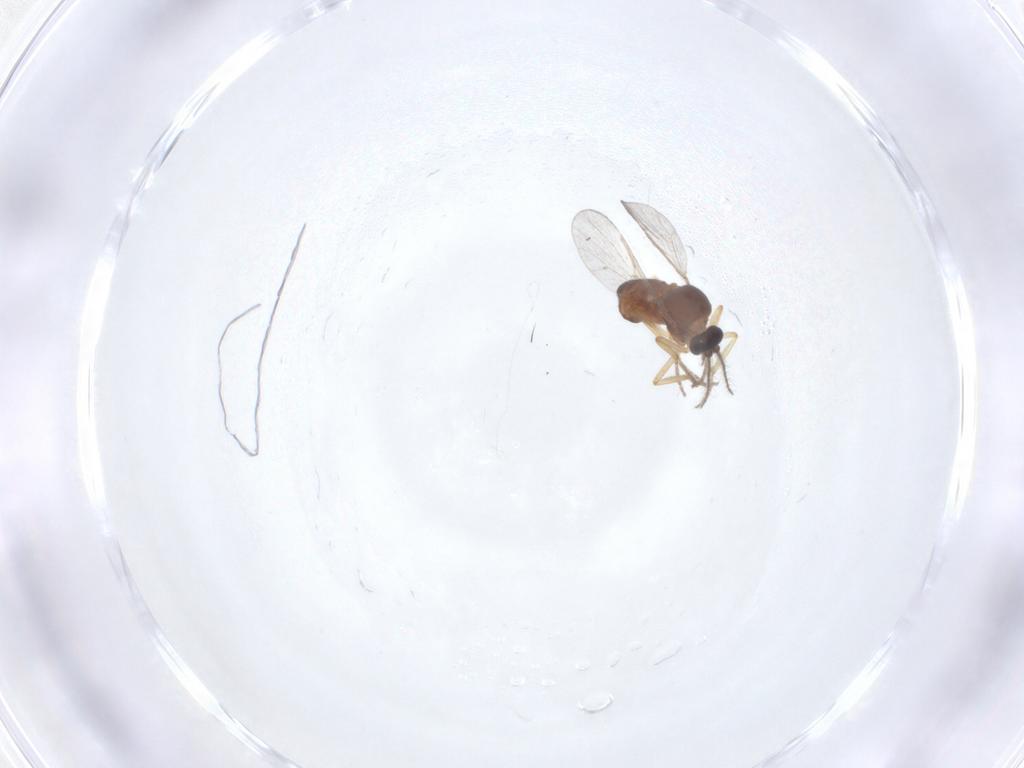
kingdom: Animalia
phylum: Arthropoda
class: Insecta
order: Diptera
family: Ceratopogonidae
